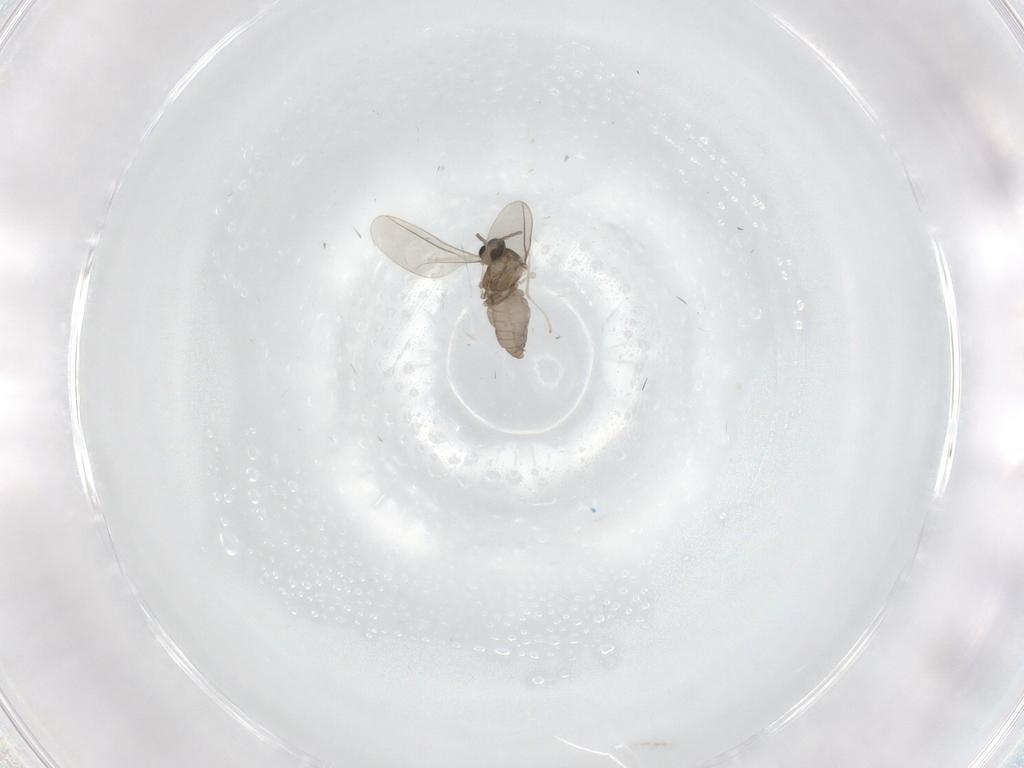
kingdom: Animalia
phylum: Arthropoda
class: Insecta
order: Diptera
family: Cecidomyiidae
